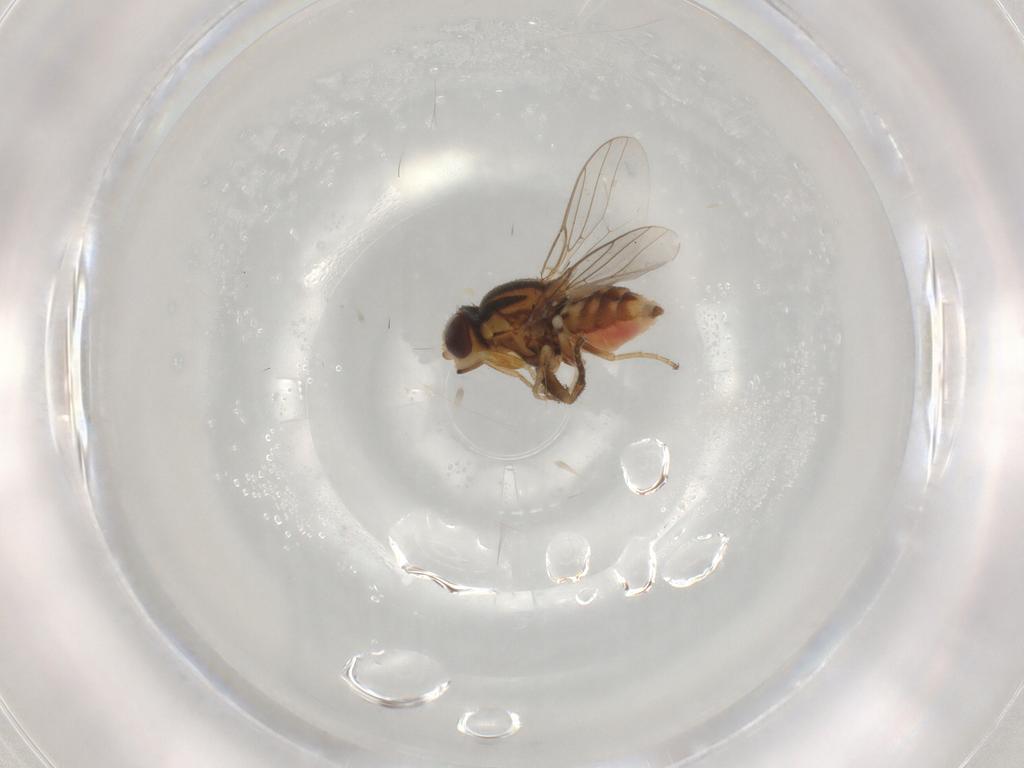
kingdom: Animalia
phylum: Arthropoda
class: Insecta
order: Diptera
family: Chloropidae
